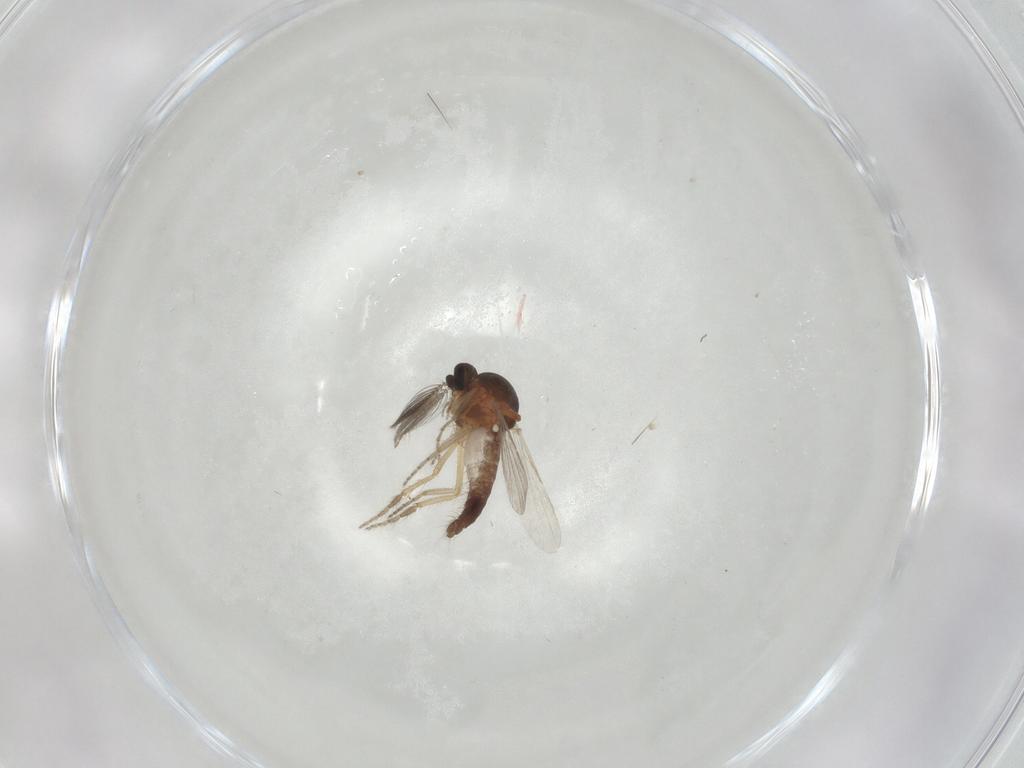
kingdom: Animalia
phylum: Arthropoda
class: Insecta
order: Diptera
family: Ceratopogonidae
